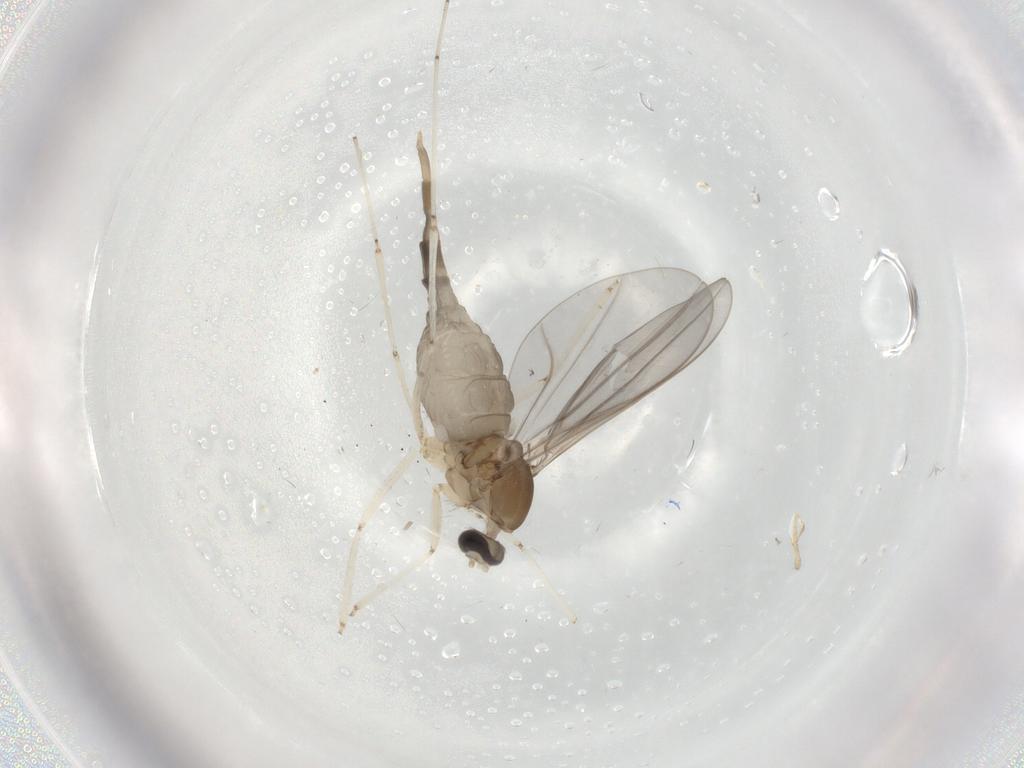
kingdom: Animalia
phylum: Arthropoda
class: Insecta
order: Diptera
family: Cecidomyiidae
